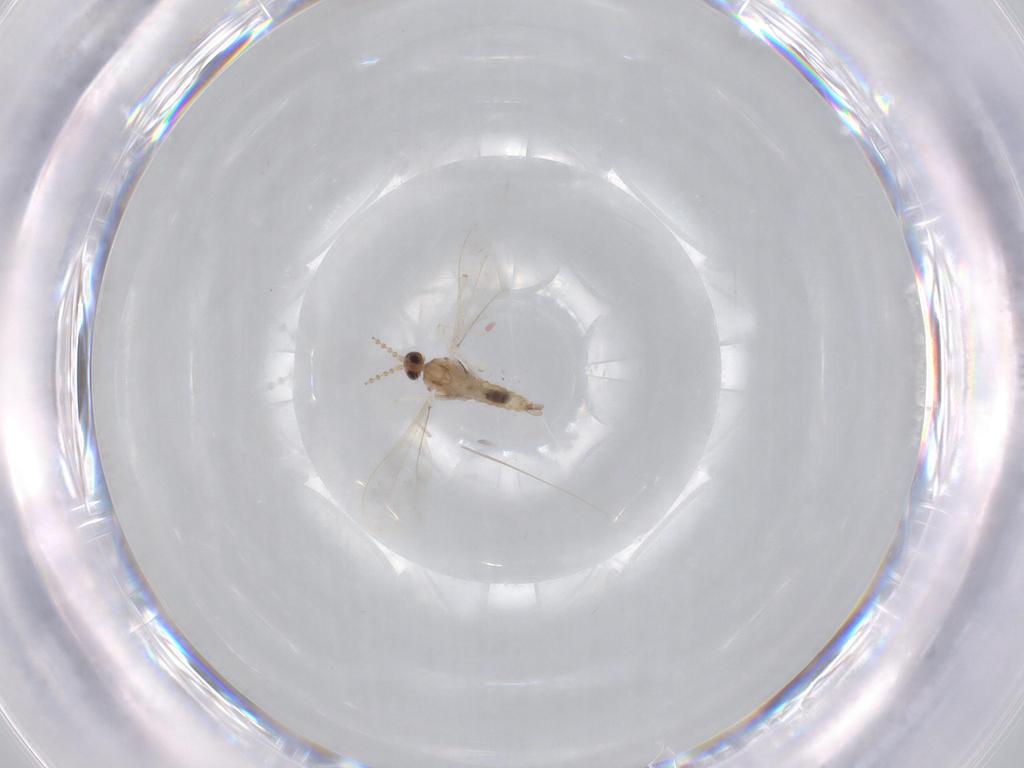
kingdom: Animalia
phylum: Arthropoda
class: Insecta
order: Diptera
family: Cecidomyiidae
